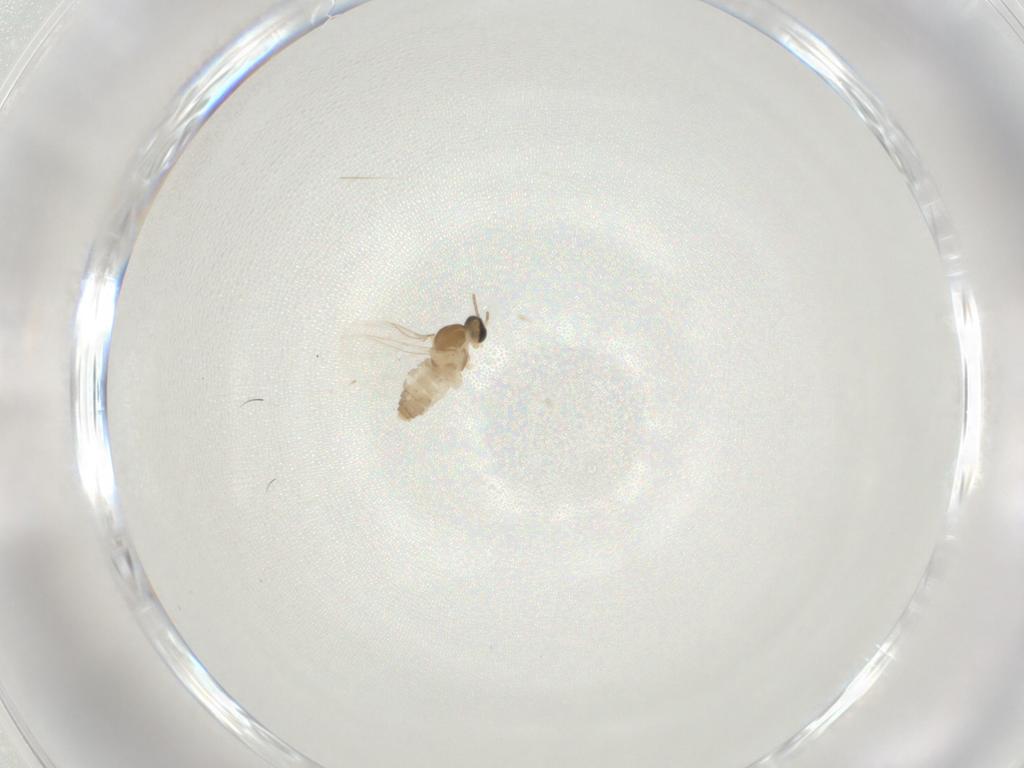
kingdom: Animalia
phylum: Arthropoda
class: Insecta
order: Diptera
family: Cecidomyiidae
